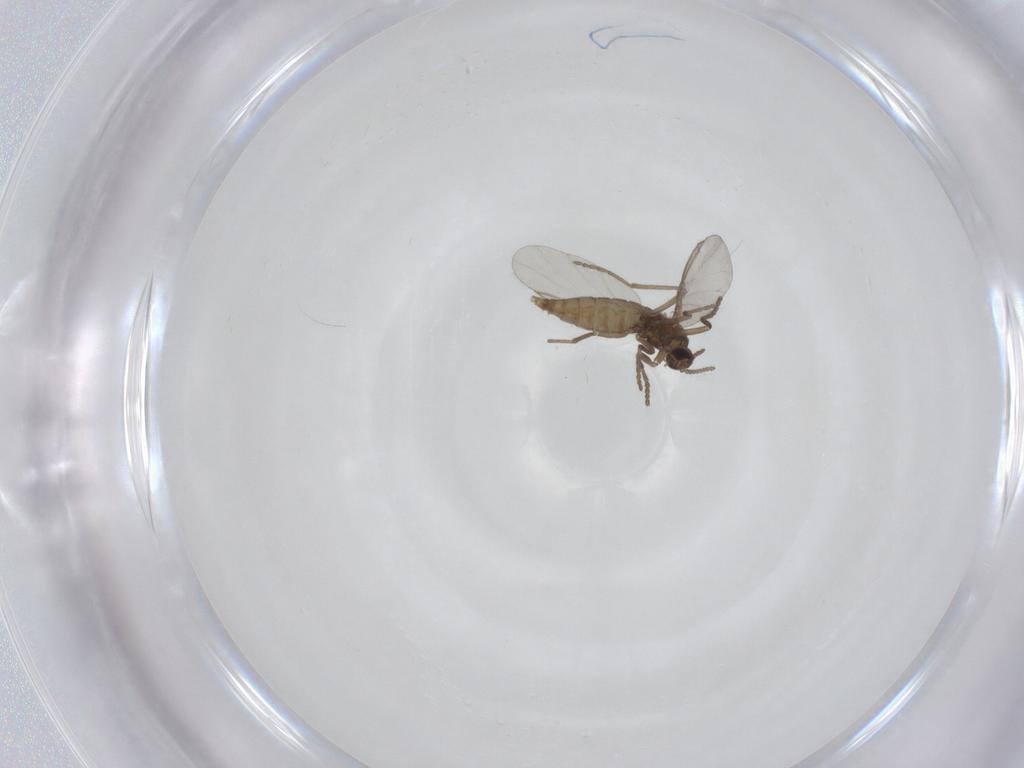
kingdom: Animalia
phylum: Arthropoda
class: Insecta
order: Diptera
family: Cecidomyiidae
